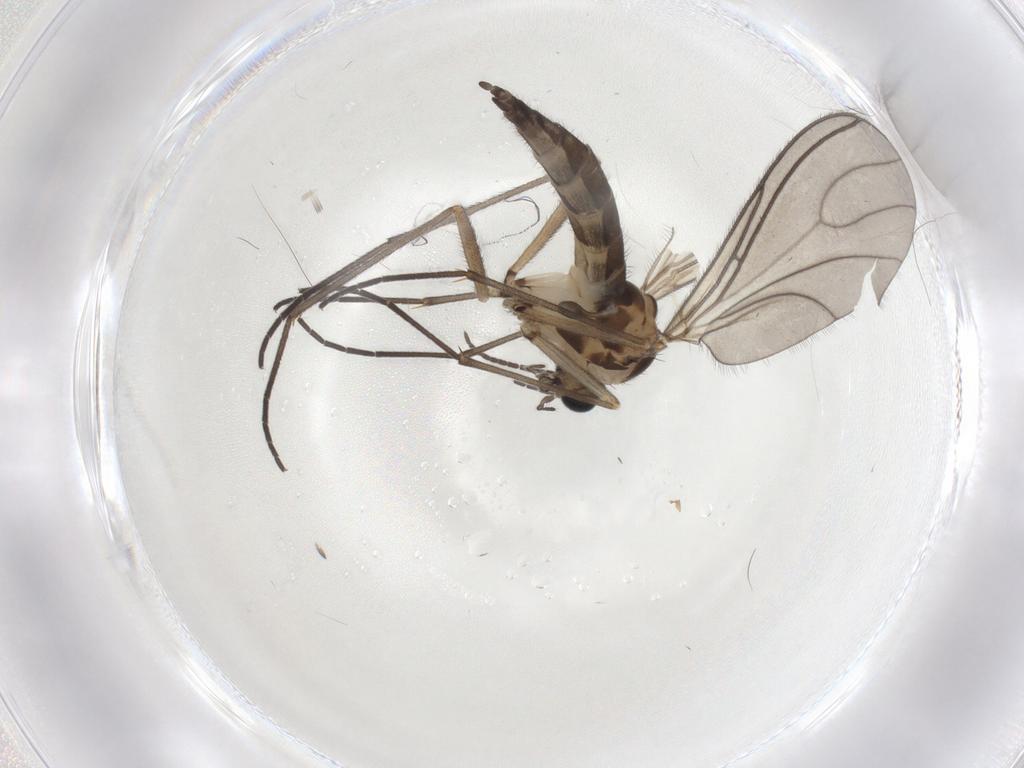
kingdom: Animalia
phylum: Arthropoda
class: Insecta
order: Diptera
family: Sciaridae
